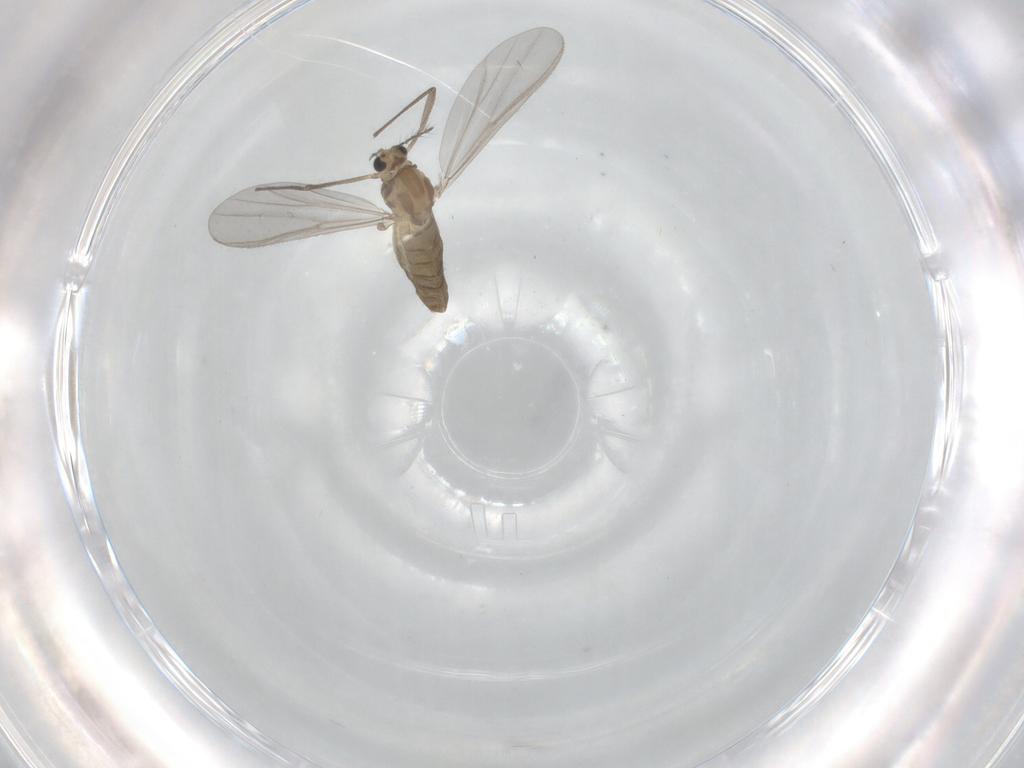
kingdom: Animalia
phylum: Arthropoda
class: Insecta
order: Diptera
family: Chironomidae
